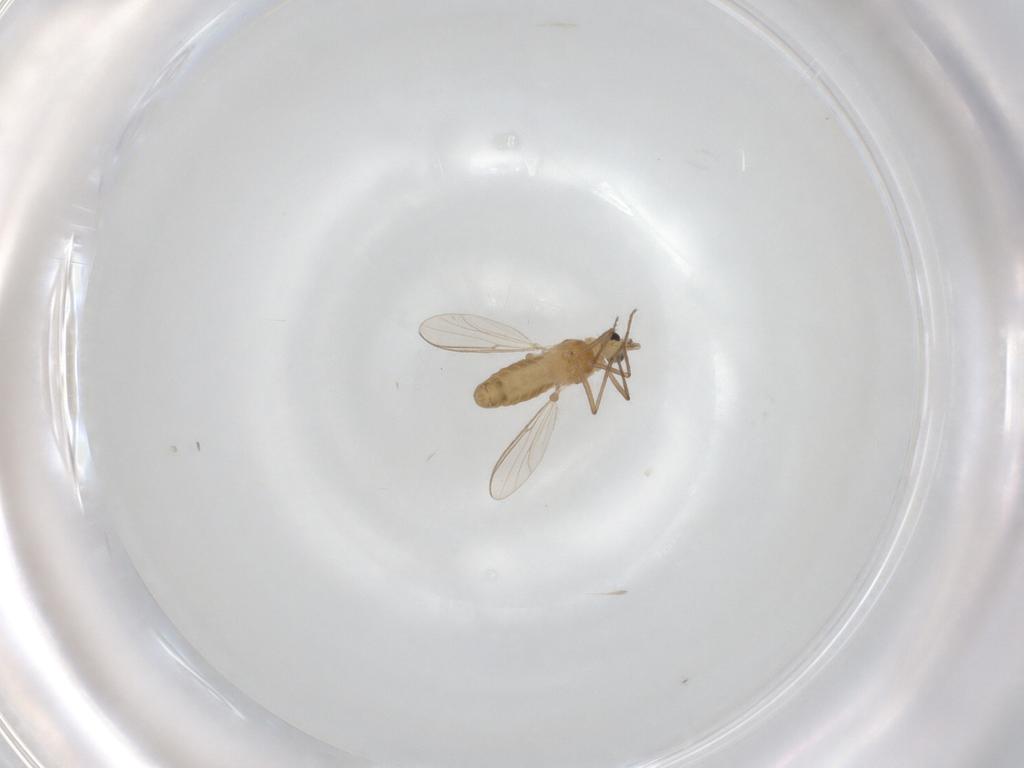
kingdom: Animalia
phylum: Arthropoda
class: Insecta
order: Diptera
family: Chironomidae
